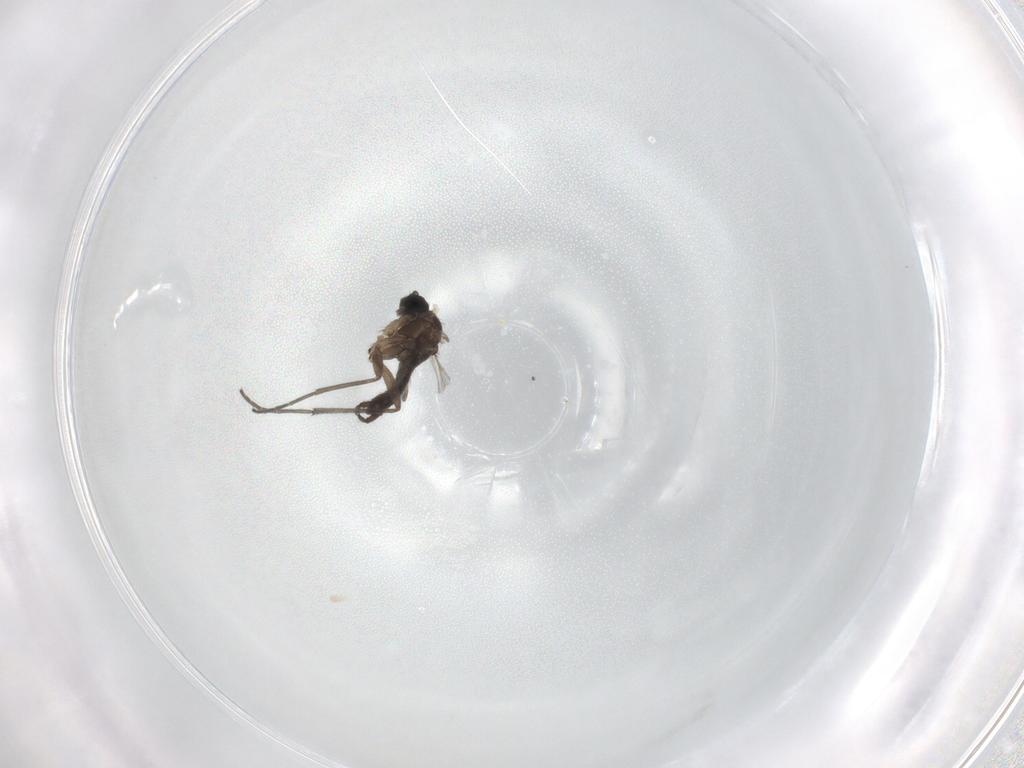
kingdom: Animalia
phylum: Arthropoda
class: Insecta
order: Diptera
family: Sciaridae
